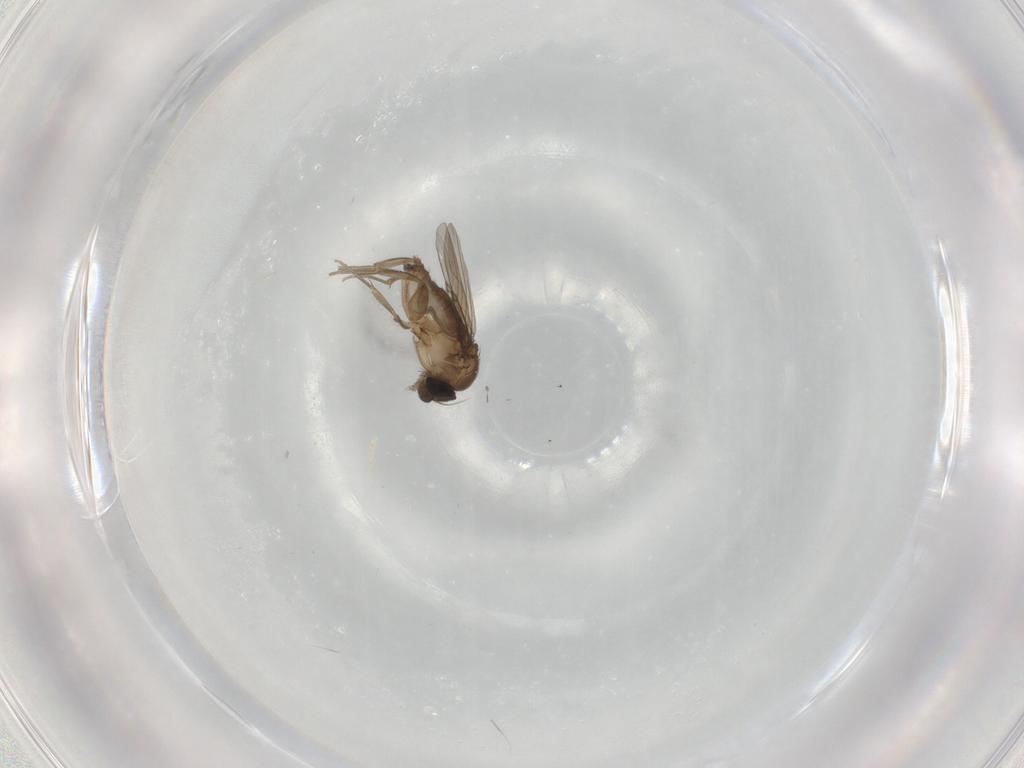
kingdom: Animalia
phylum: Arthropoda
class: Insecta
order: Diptera
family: Phoridae
